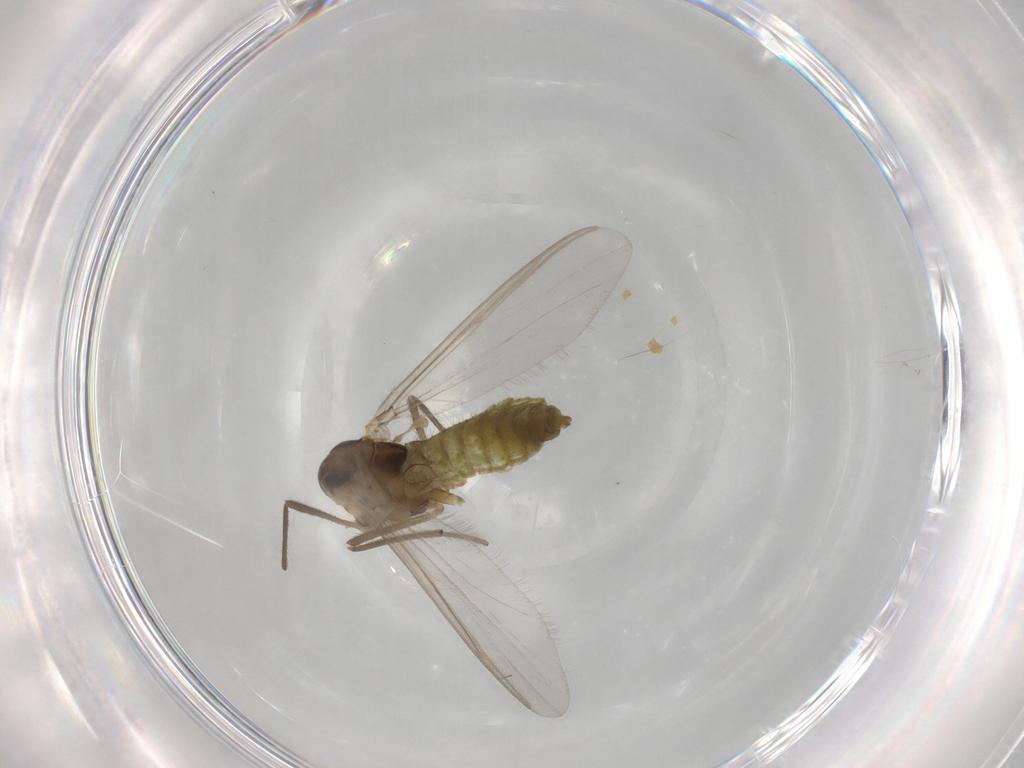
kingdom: Animalia
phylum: Arthropoda
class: Insecta
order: Diptera
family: Chironomidae
